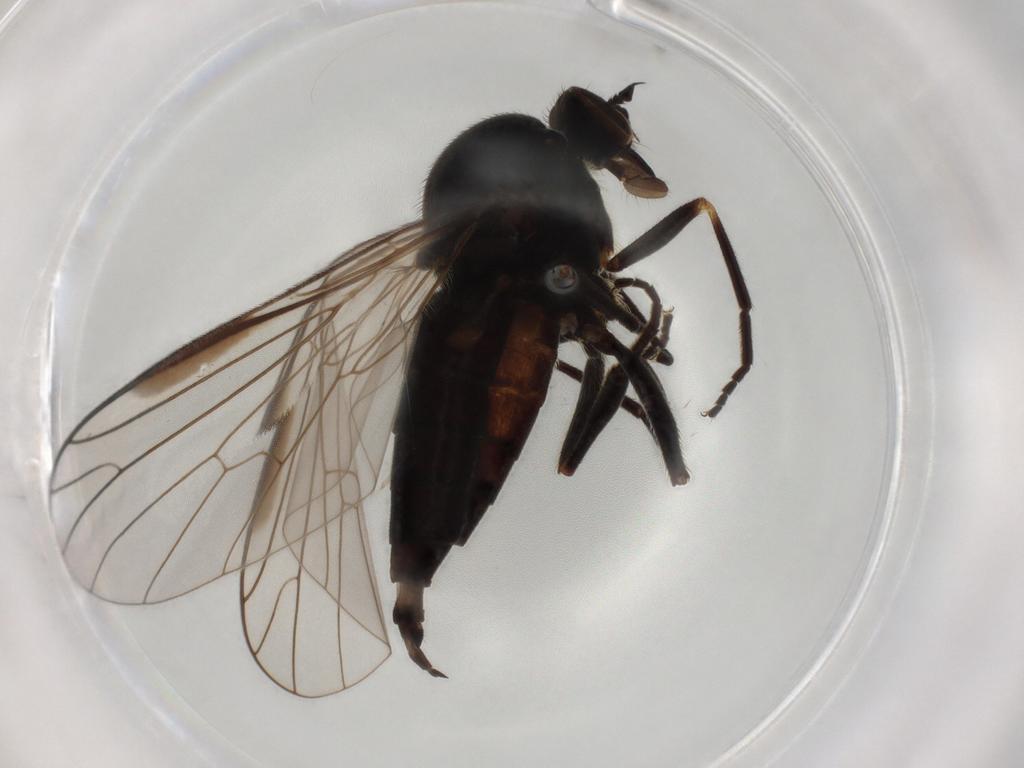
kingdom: Animalia
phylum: Arthropoda
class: Insecta
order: Diptera
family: Empididae
